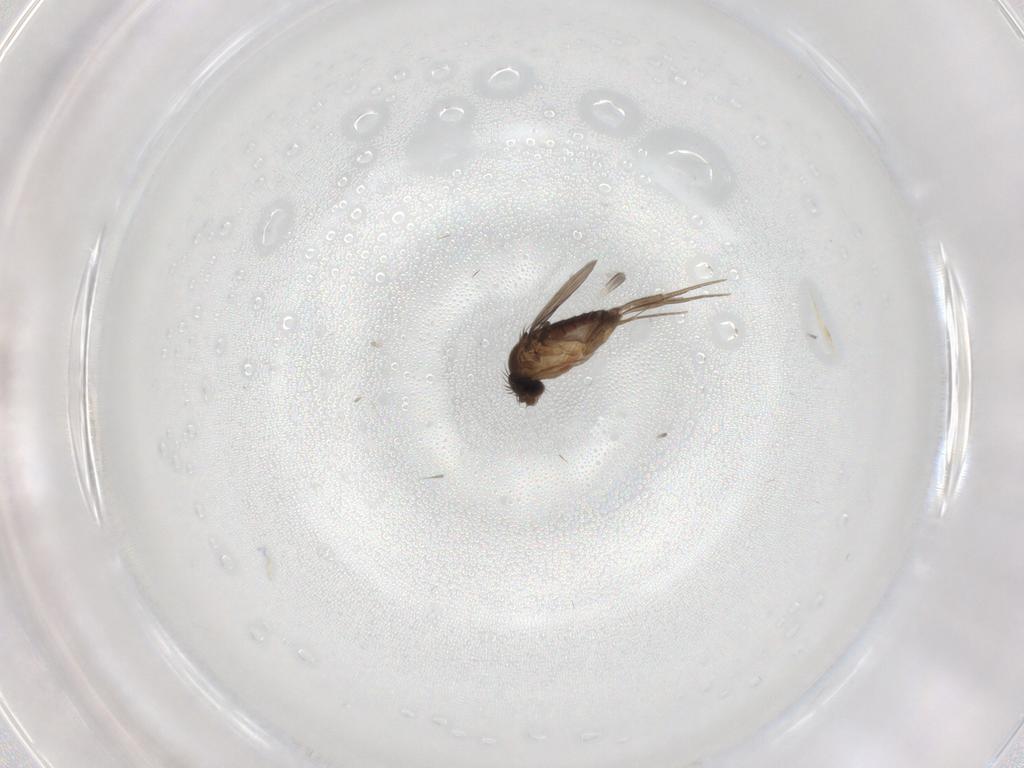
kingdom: Animalia
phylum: Arthropoda
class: Insecta
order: Diptera
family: Phoridae
